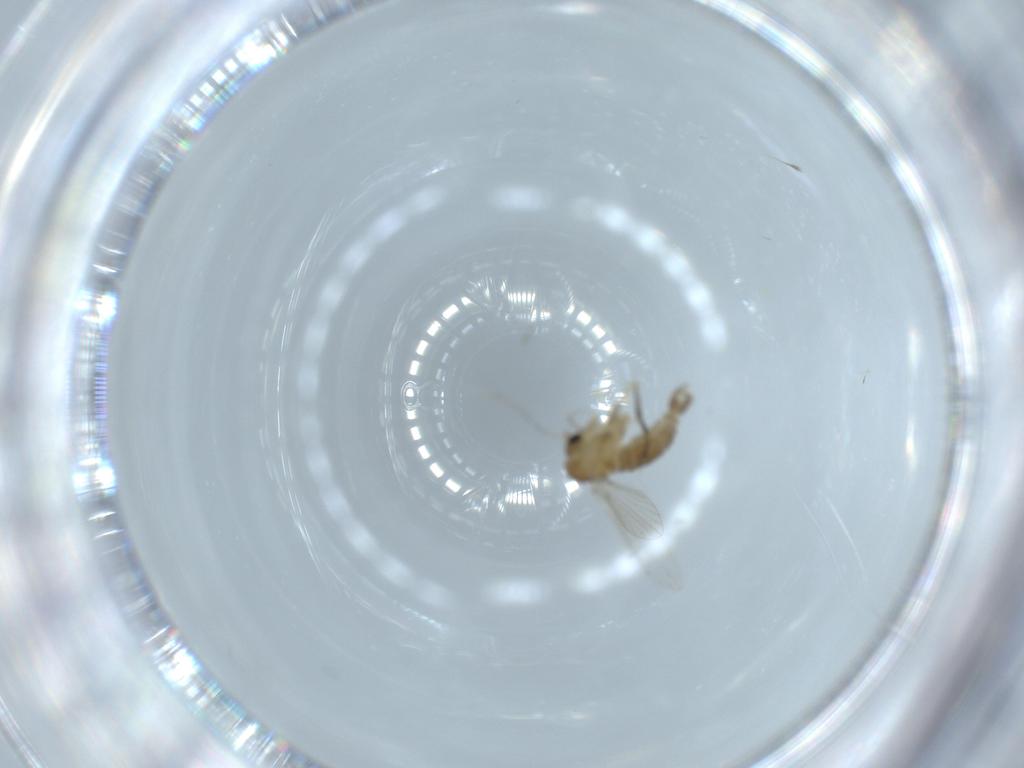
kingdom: Animalia
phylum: Arthropoda
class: Insecta
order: Diptera
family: Psychodidae
